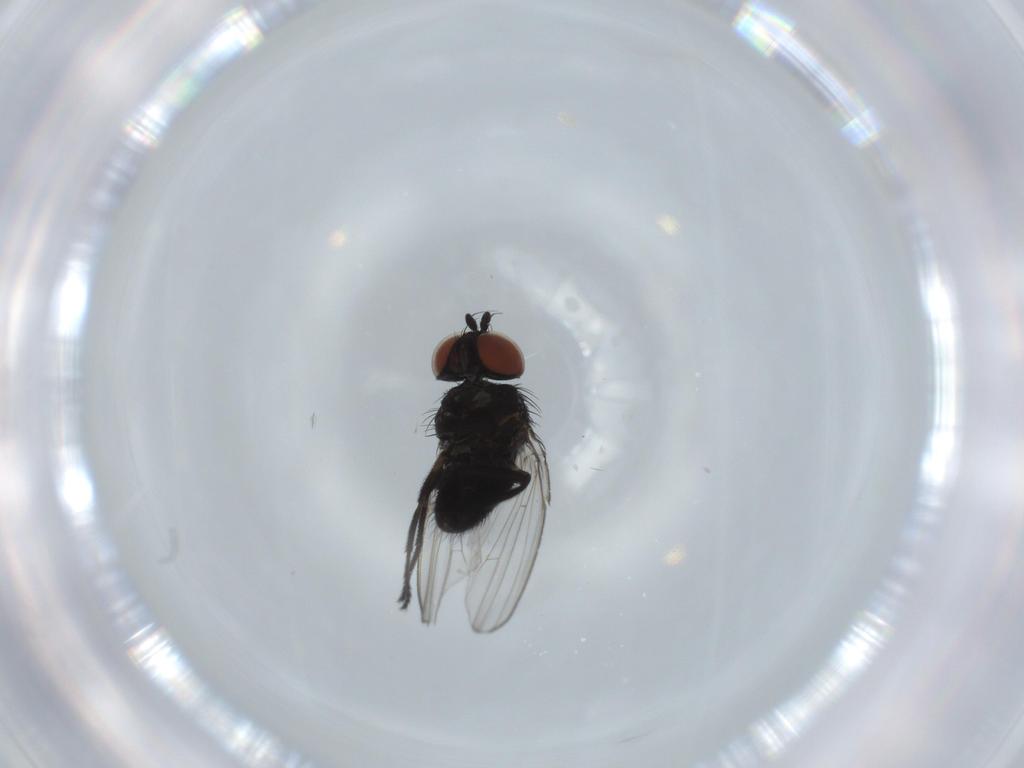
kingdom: Animalia
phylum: Arthropoda
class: Insecta
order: Diptera
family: Milichiidae
